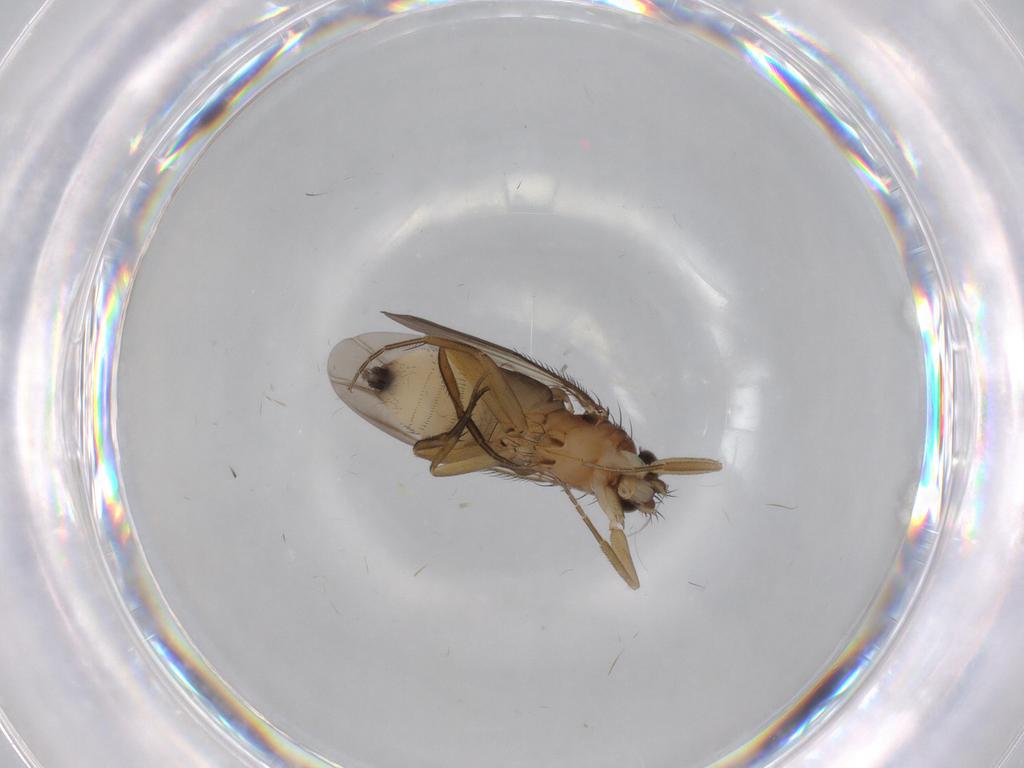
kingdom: Animalia
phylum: Arthropoda
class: Insecta
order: Diptera
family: Phoridae
